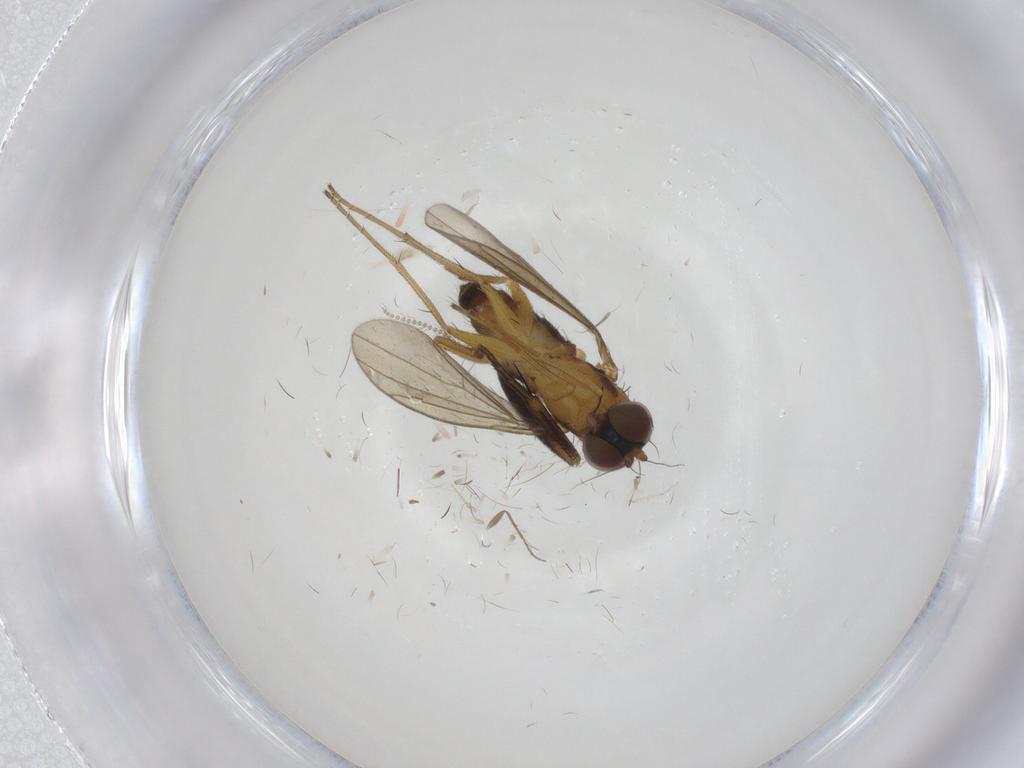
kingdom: Animalia
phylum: Arthropoda
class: Insecta
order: Diptera
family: Dolichopodidae
